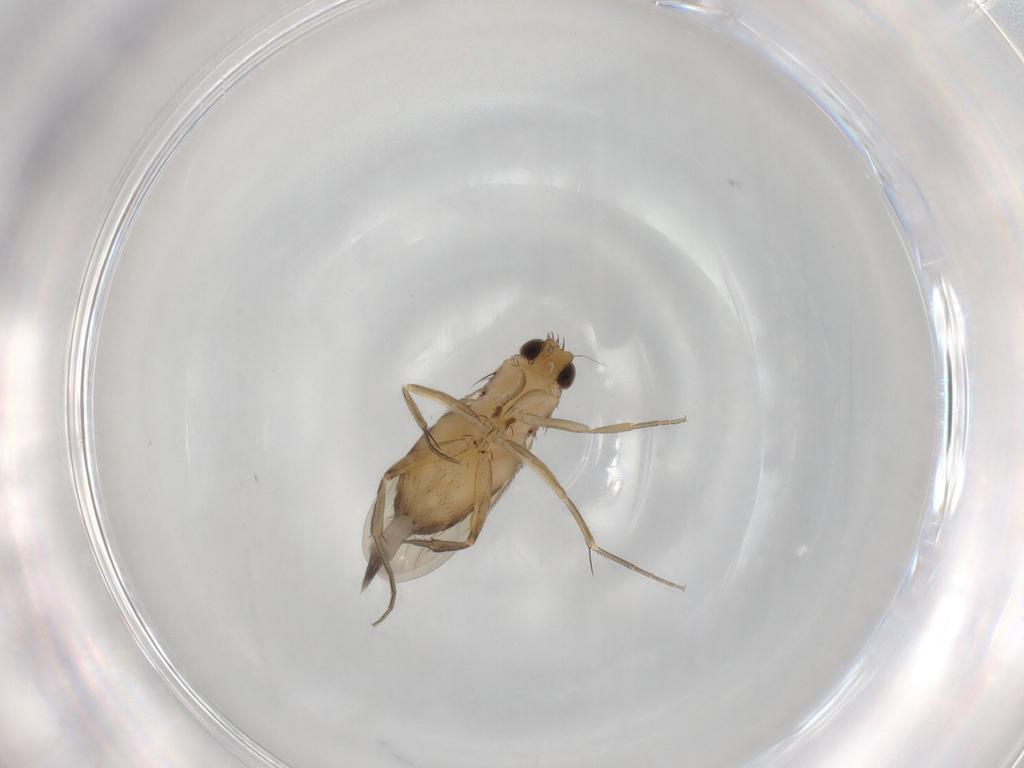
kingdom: Animalia
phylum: Arthropoda
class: Insecta
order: Diptera
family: Phoridae
